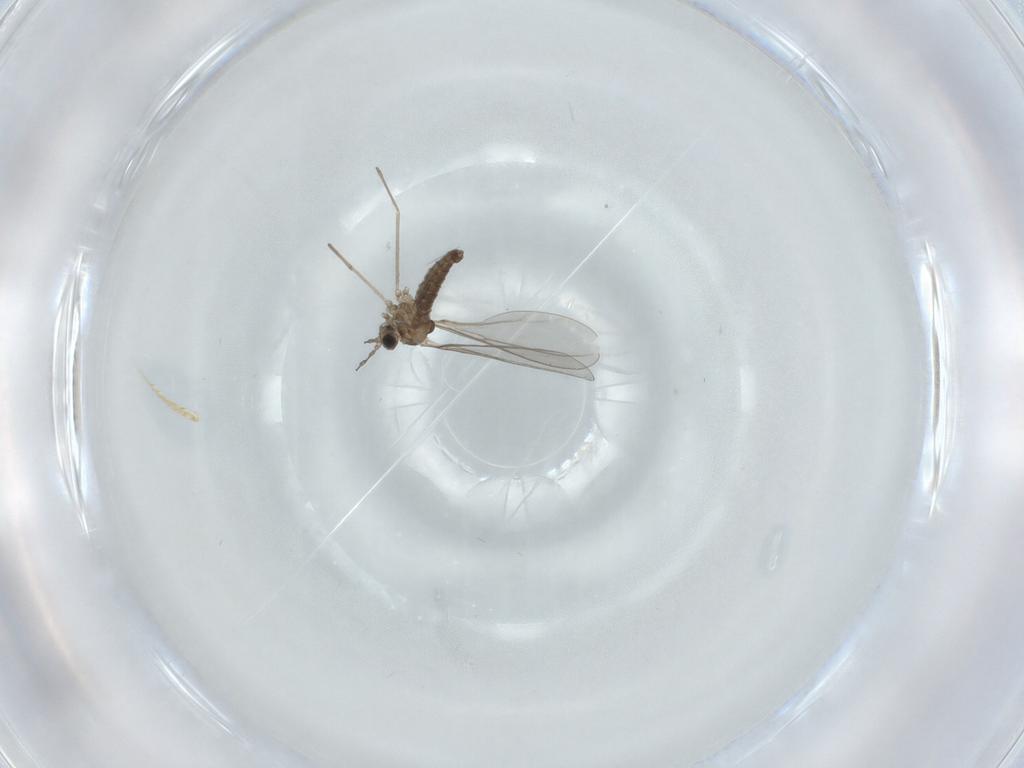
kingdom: Animalia
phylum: Arthropoda
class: Insecta
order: Diptera
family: Cecidomyiidae
